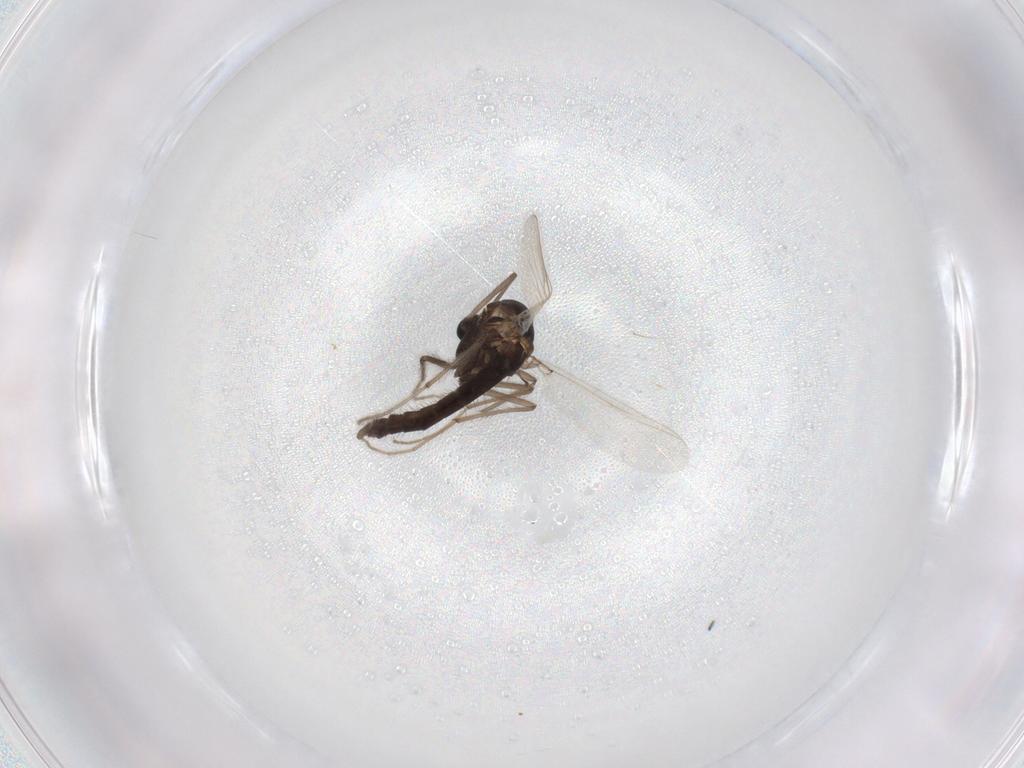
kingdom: Animalia
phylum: Arthropoda
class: Insecta
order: Diptera
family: Chironomidae
